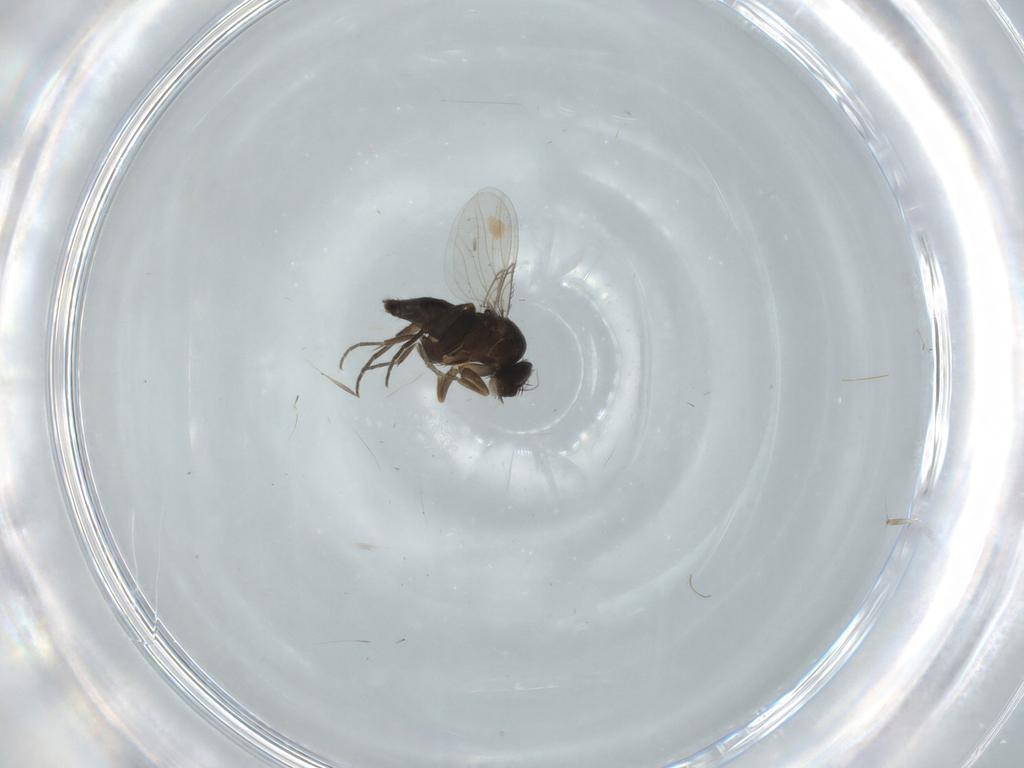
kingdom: Animalia
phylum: Arthropoda
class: Insecta
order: Diptera
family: Phoridae
